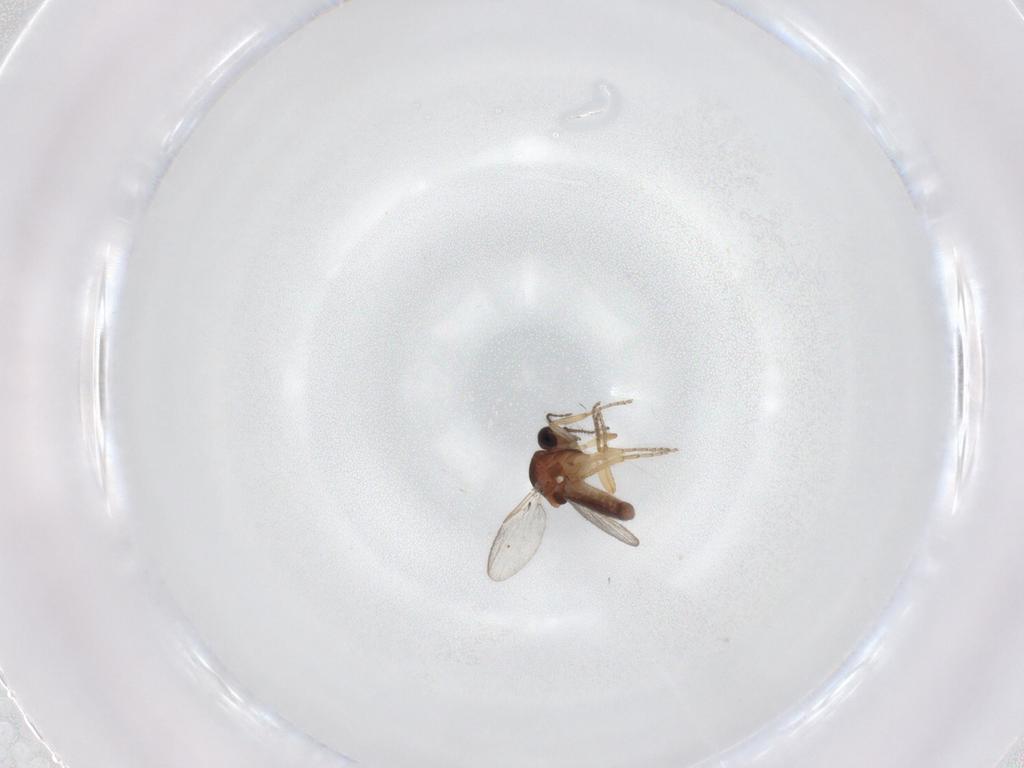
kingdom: Animalia
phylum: Arthropoda
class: Insecta
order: Diptera
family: Ceratopogonidae
